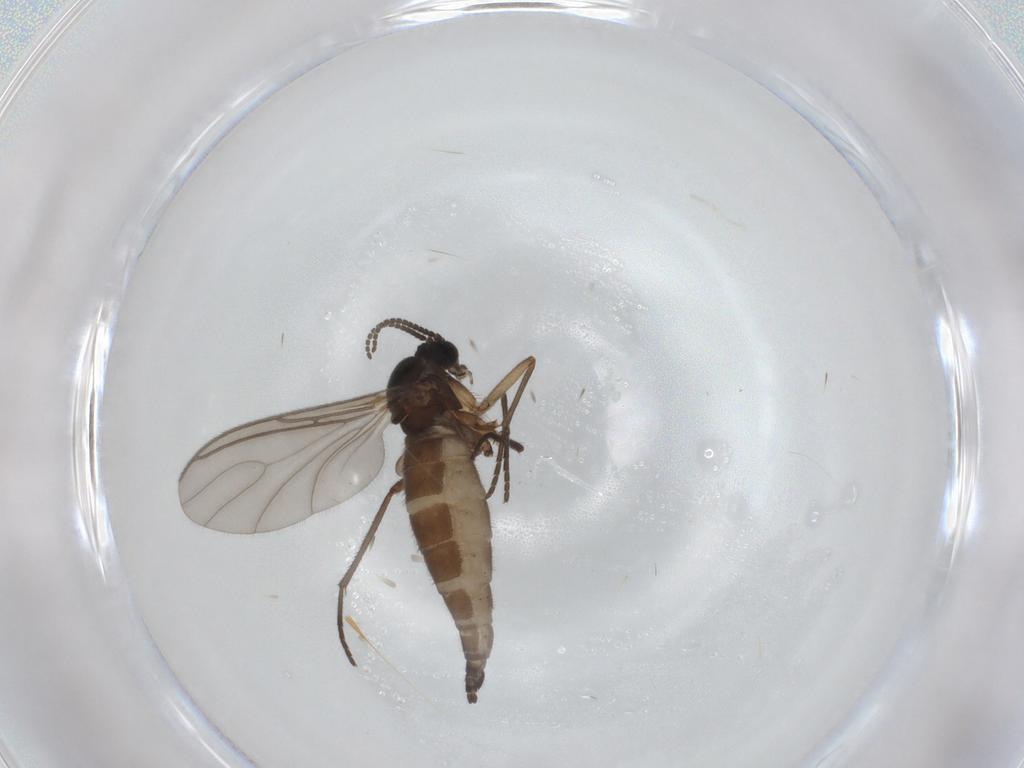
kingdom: Animalia
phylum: Arthropoda
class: Insecta
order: Diptera
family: Sciaridae
